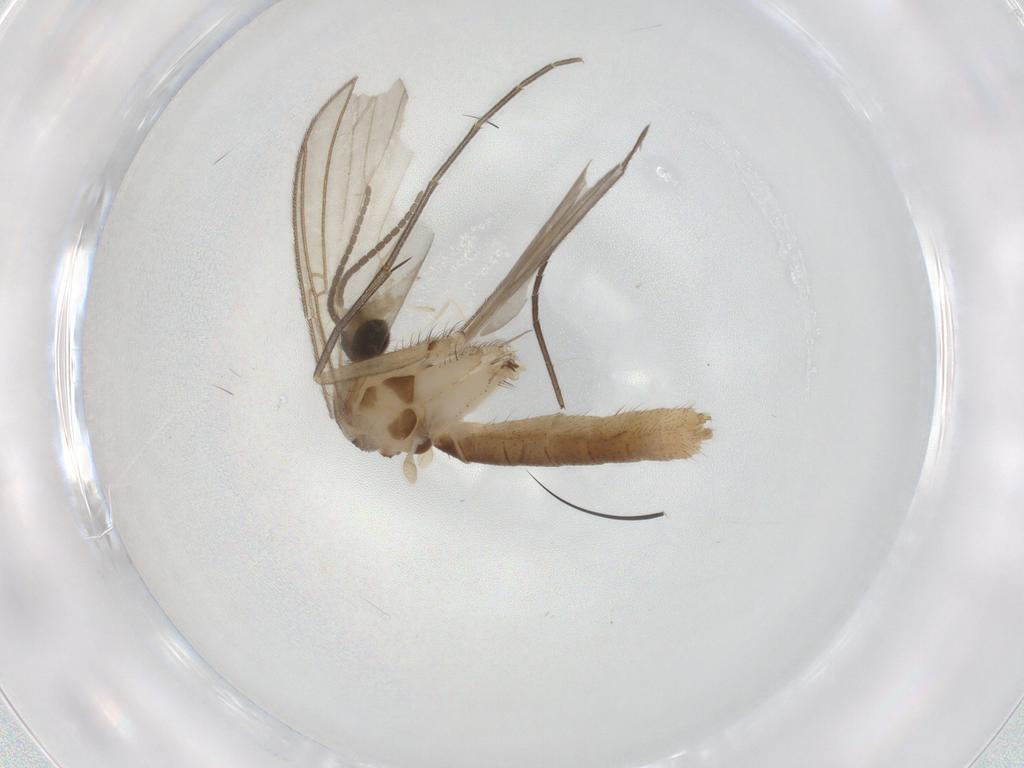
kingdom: Animalia
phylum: Arthropoda
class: Insecta
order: Diptera
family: Mycetophilidae
